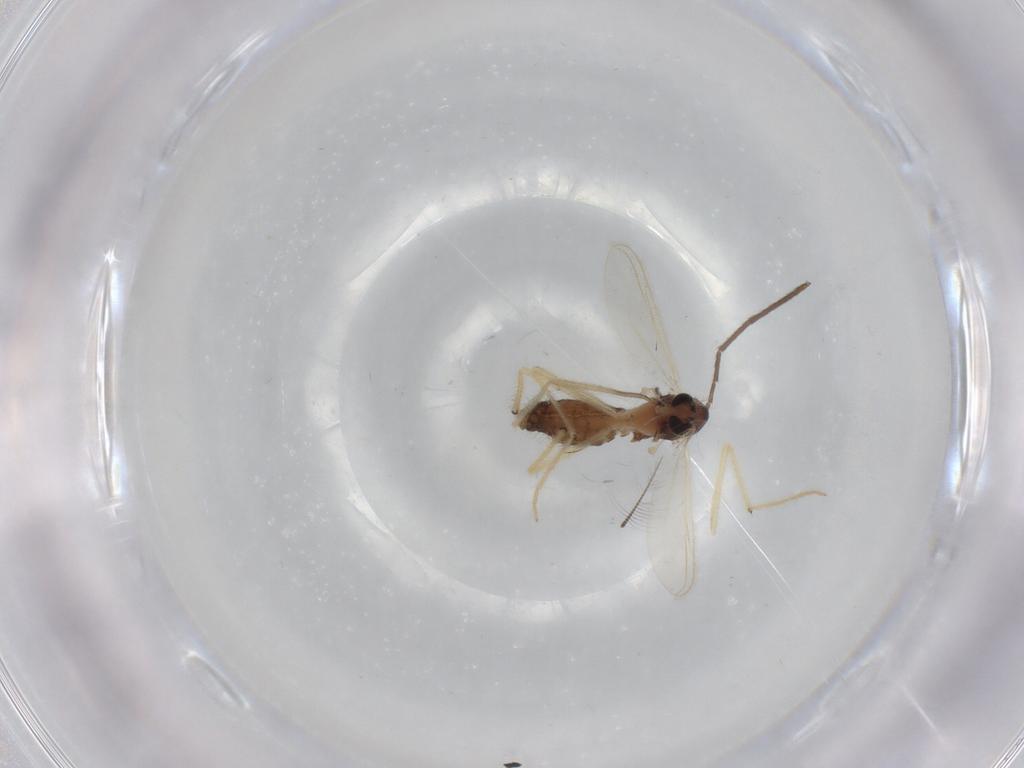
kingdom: Animalia
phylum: Arthropoda
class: Insecta
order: Diptera
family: Chironomidae
